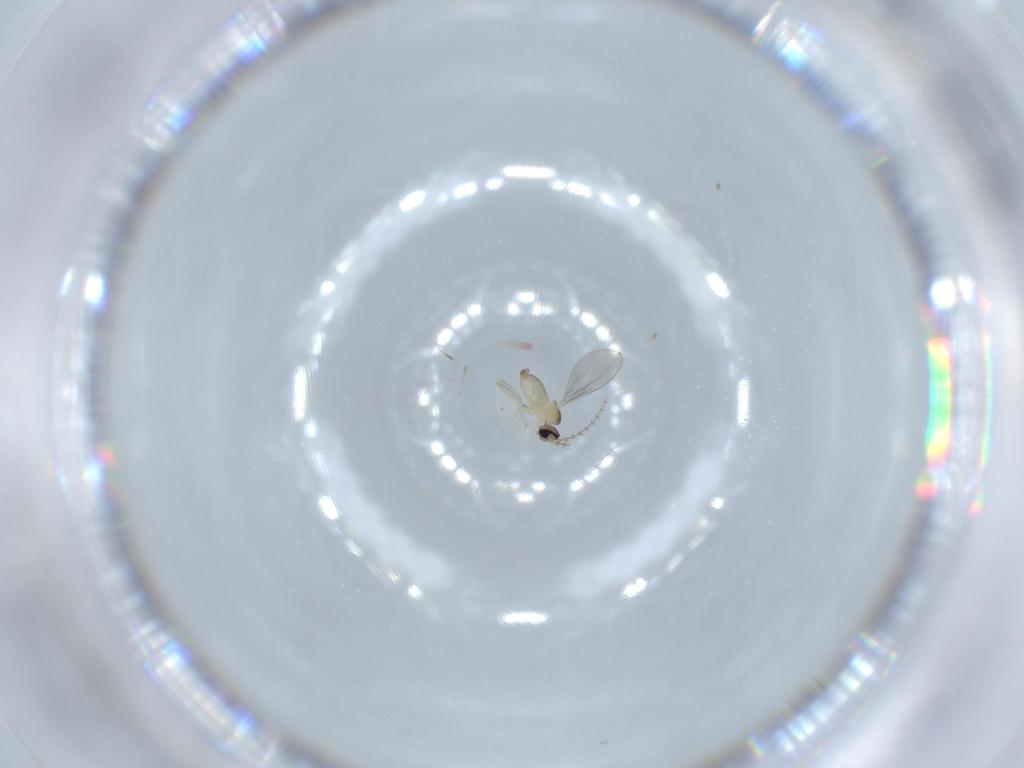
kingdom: Animalia
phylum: Arthropoda
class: Insecta
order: Diptera
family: Cecidomyiidae
